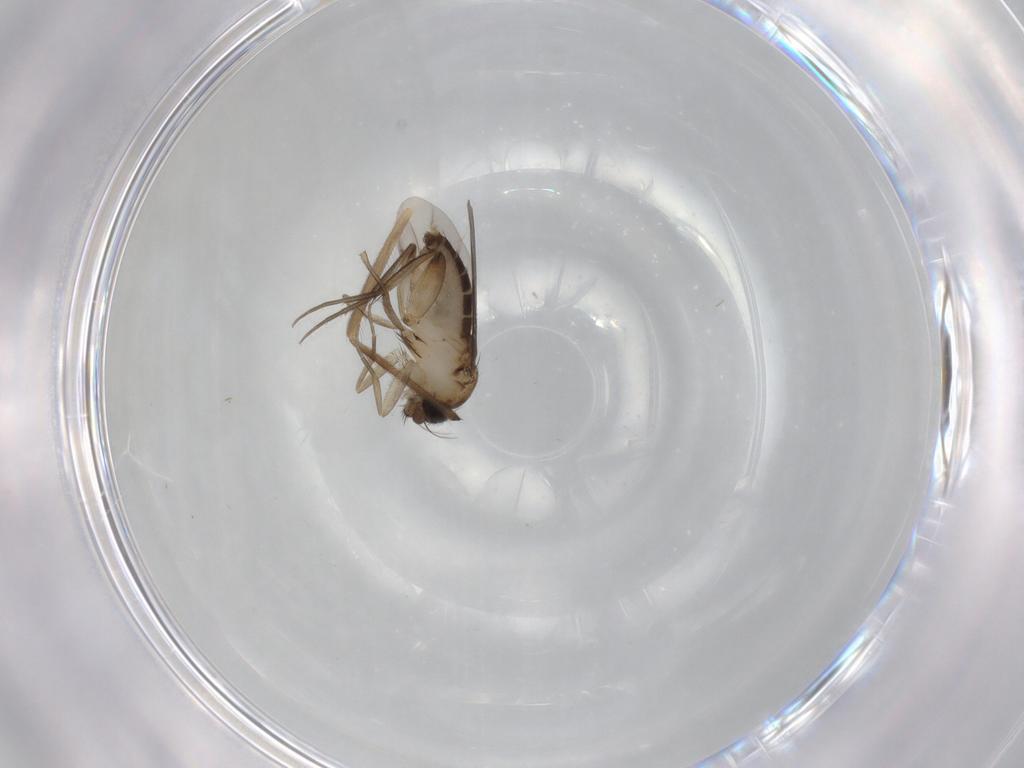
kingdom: Animalia
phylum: Arthropoda
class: Insecta
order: Diptera
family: Phoridae
